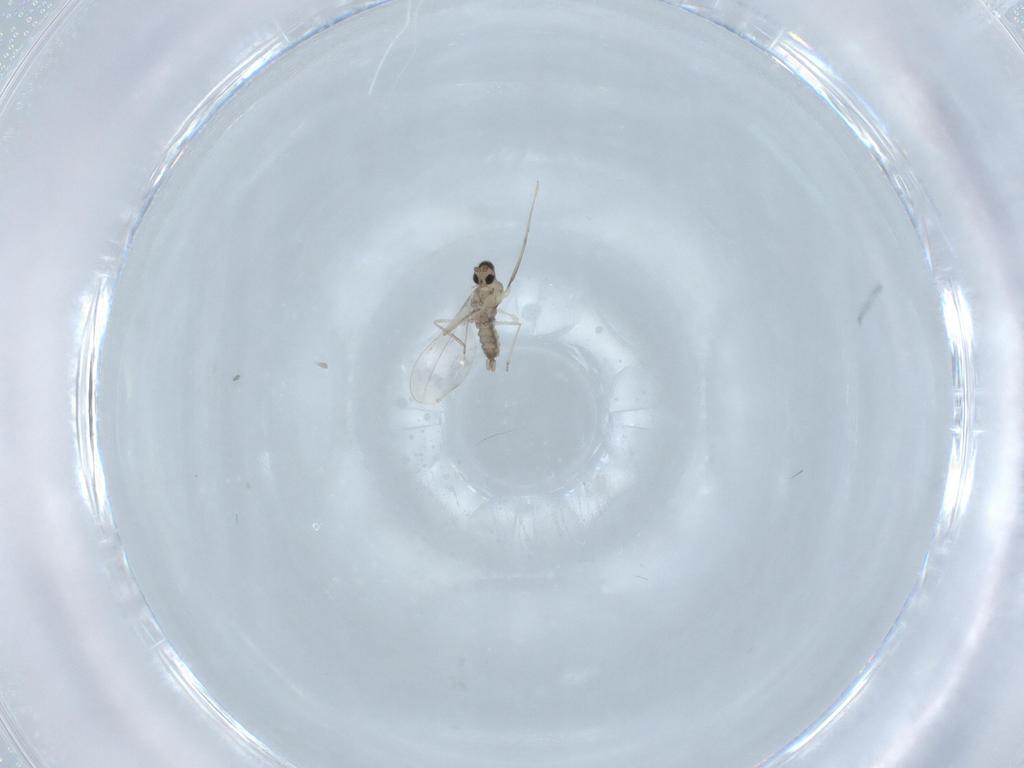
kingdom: Animalia
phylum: Arthropoda
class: Insecta
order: Diptera
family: Cecidomyiidae
